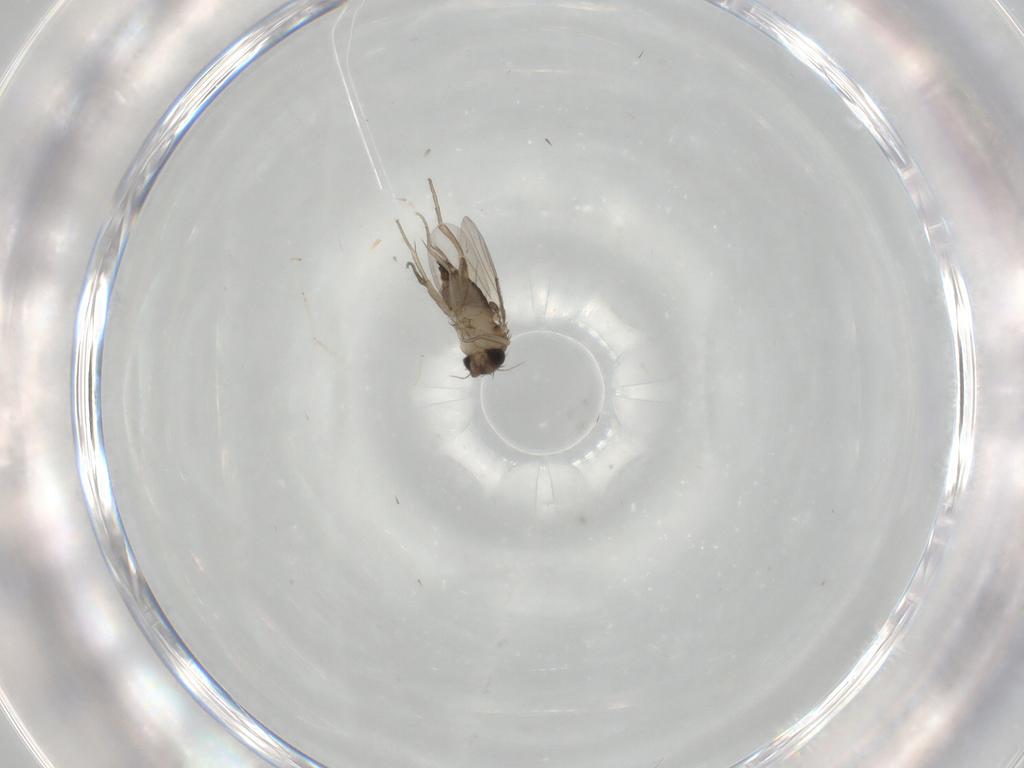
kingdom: Animalia
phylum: Arthropoda
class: Insecta
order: Diptera
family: Phoridae
